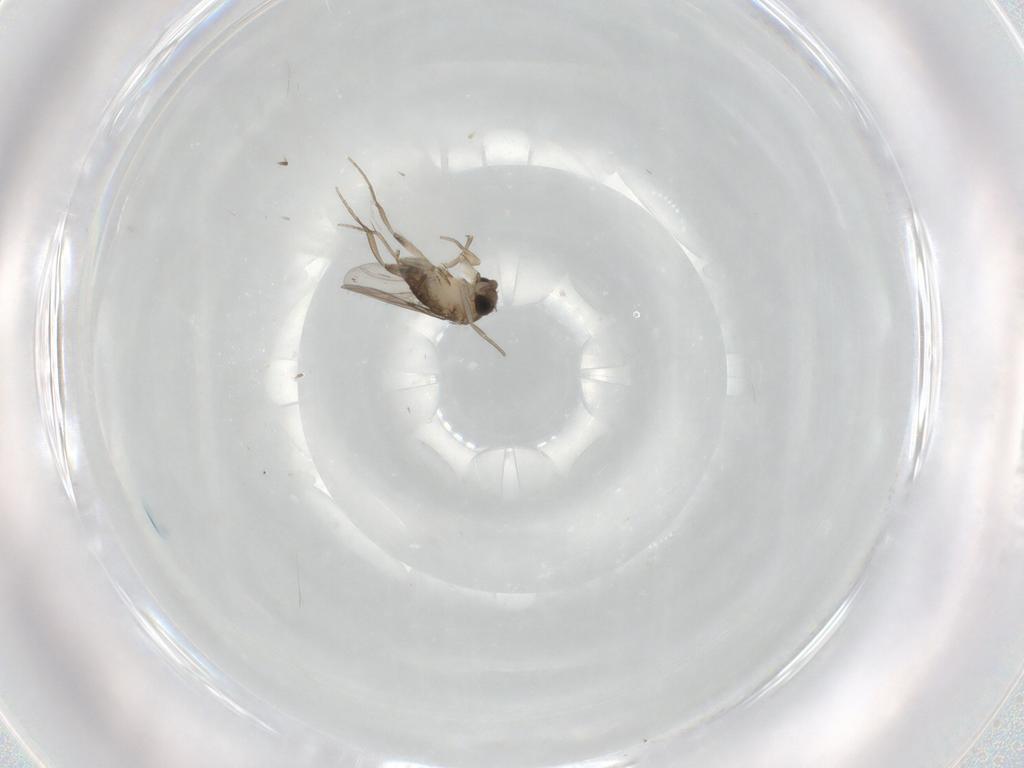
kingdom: Animalia
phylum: Arthropoda
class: Insecta
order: Diptera
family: Phoridae
